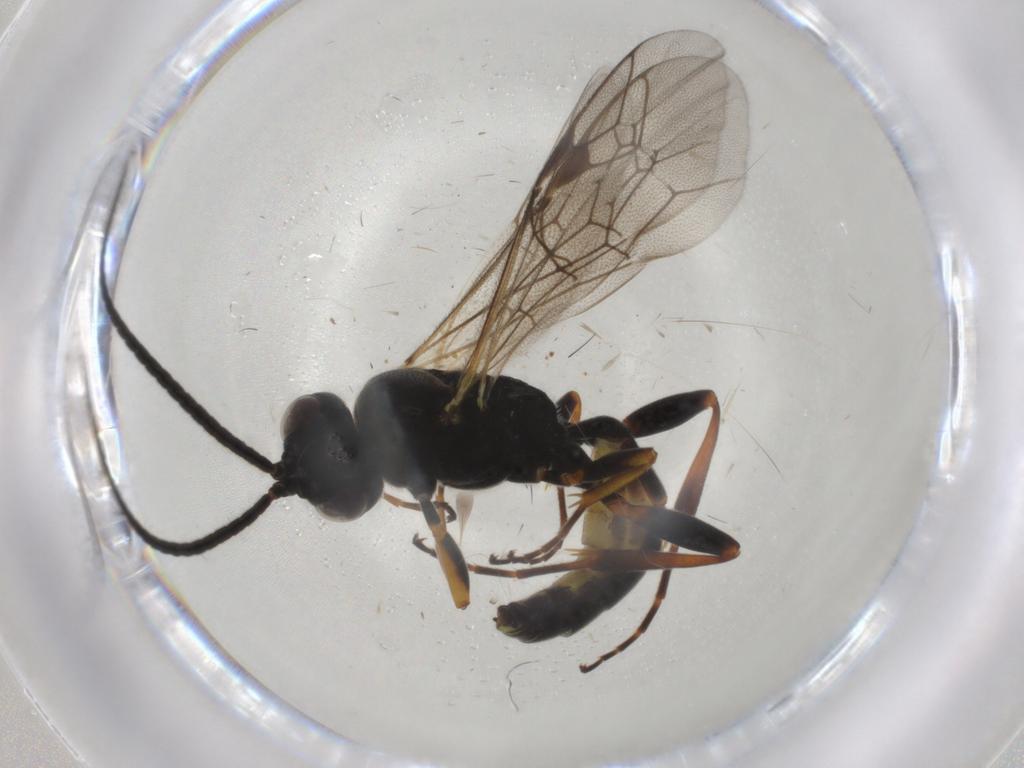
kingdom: Animalia
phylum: Arthropoda
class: Insecta
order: Hymenoptera
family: Ichneumonidae
